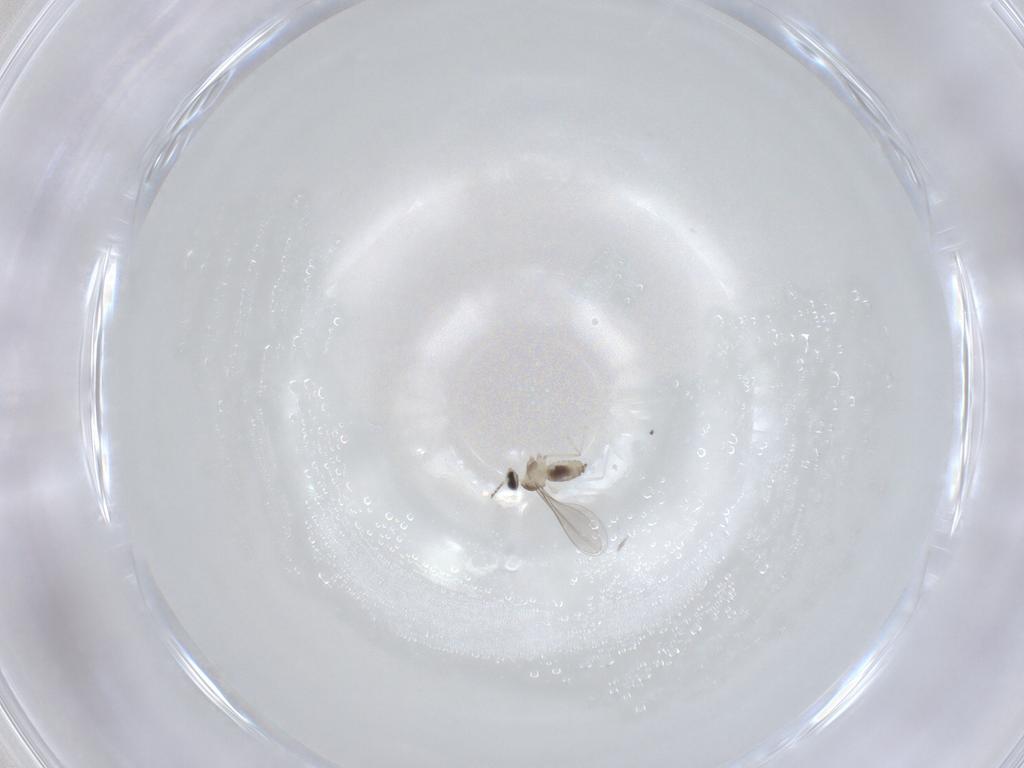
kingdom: Animalia
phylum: Arthropoda
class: Insecta
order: Diptera
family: Cecidomyiidae
